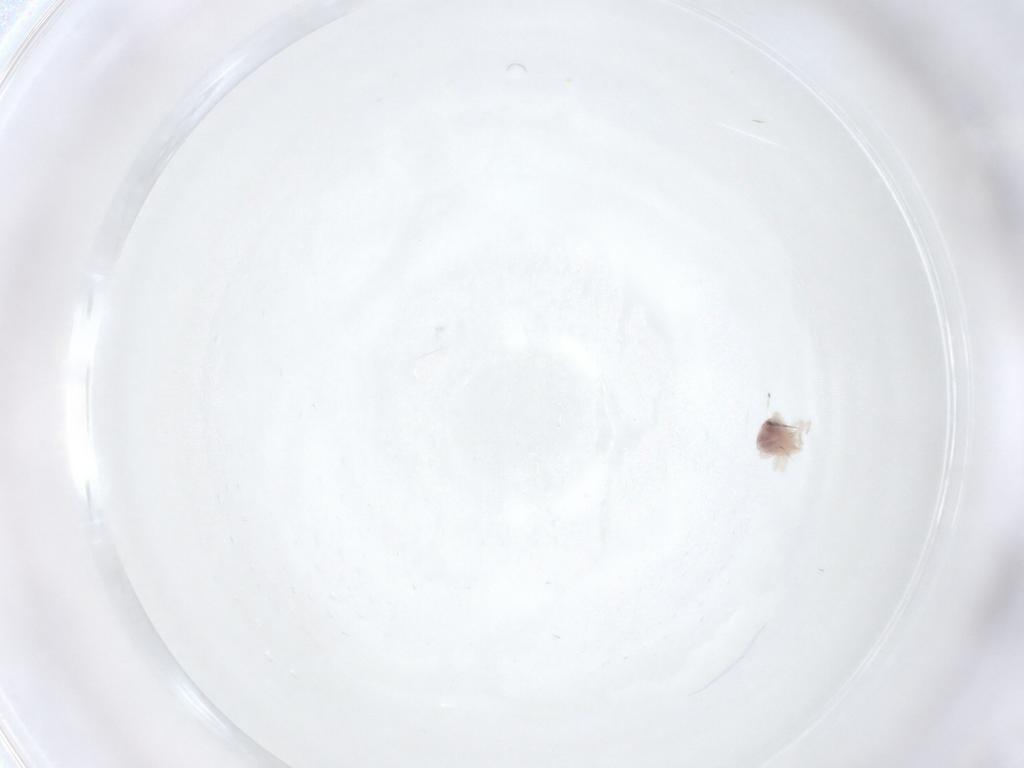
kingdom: Animalia
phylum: Arthropoda
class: Arachnida
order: Trombidiformes
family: Anystidae
